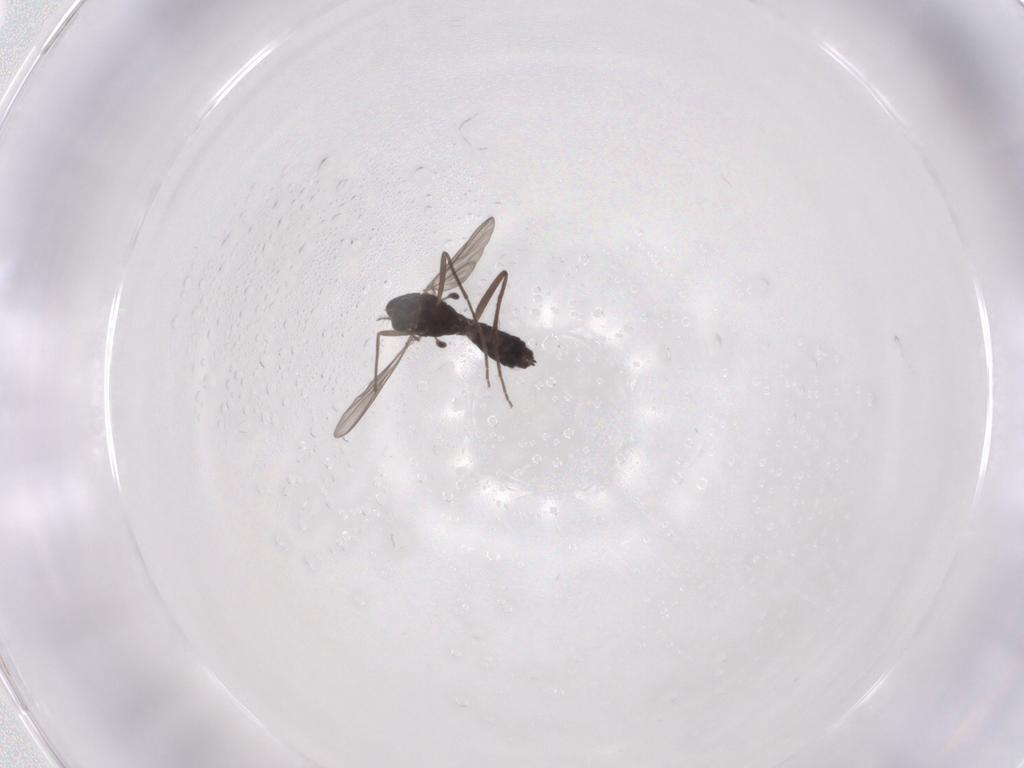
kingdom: Animalia
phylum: Arthropoda
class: Insecta
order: Diptera
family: Chironomidae
